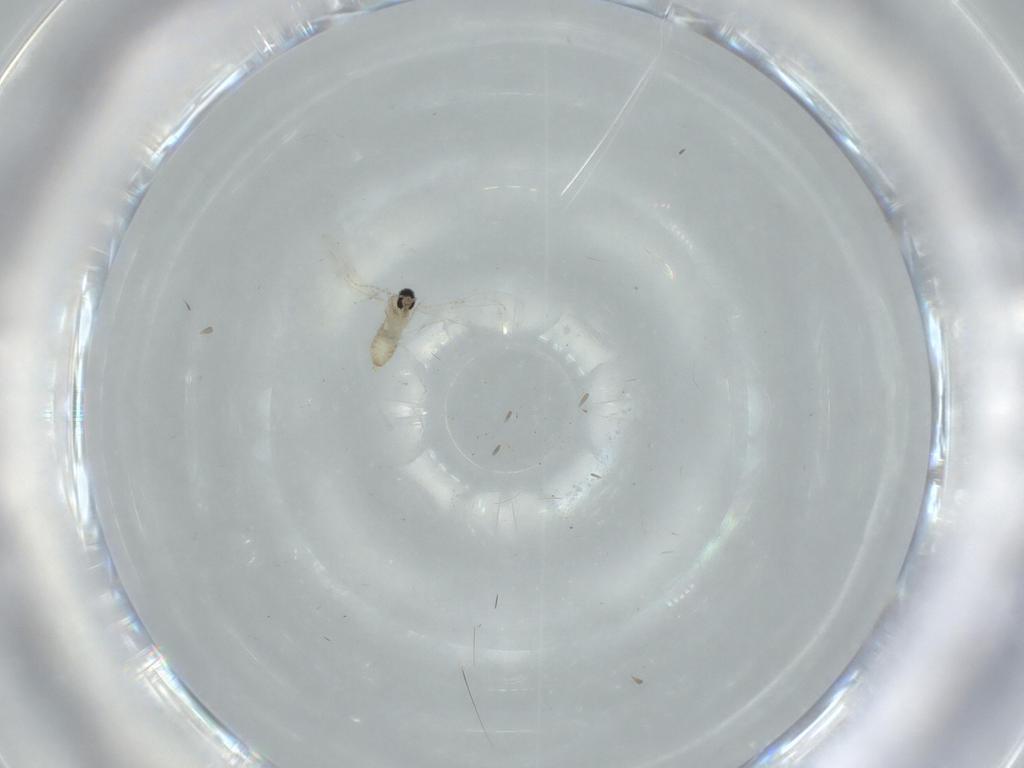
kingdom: Animalia
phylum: Arthropoda
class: Insecta
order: Diptera
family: Cecidomyiidae
